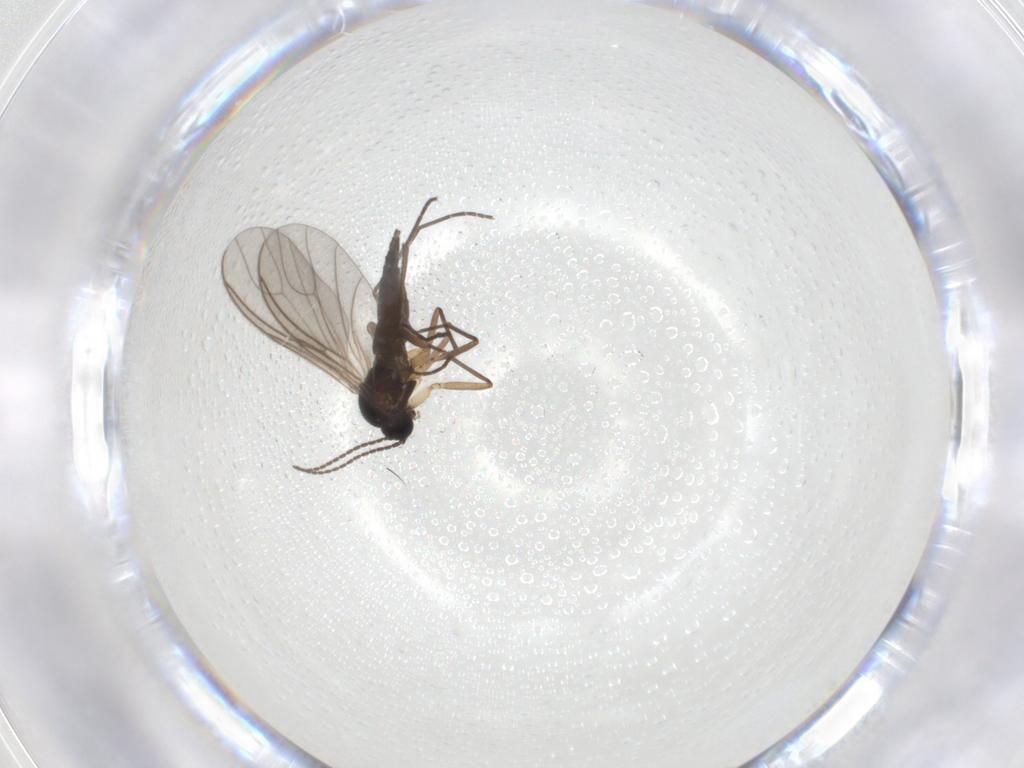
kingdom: Animalia
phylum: Arthropoda
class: Insecta
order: Diptera
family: Sciaridae
